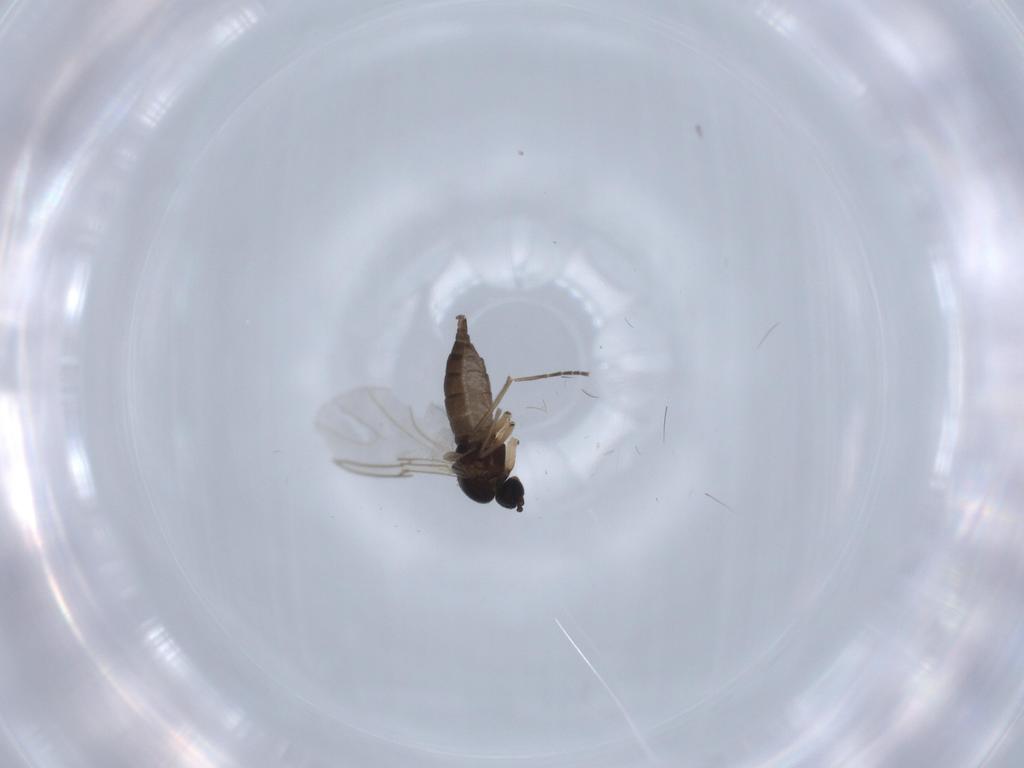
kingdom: Animalia
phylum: Arthropoda
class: Insecta
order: Diptera
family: Sciaridae
